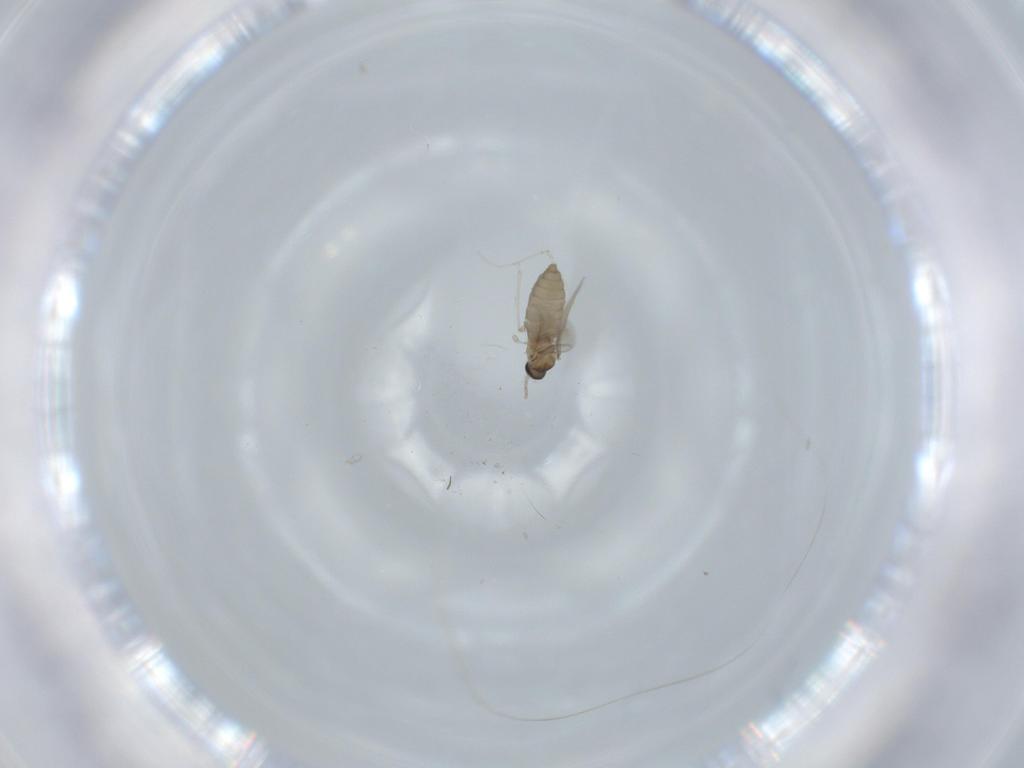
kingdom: Animalia
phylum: Arthropoda
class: Insecta
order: Diptera
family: Cecidomyiidae
